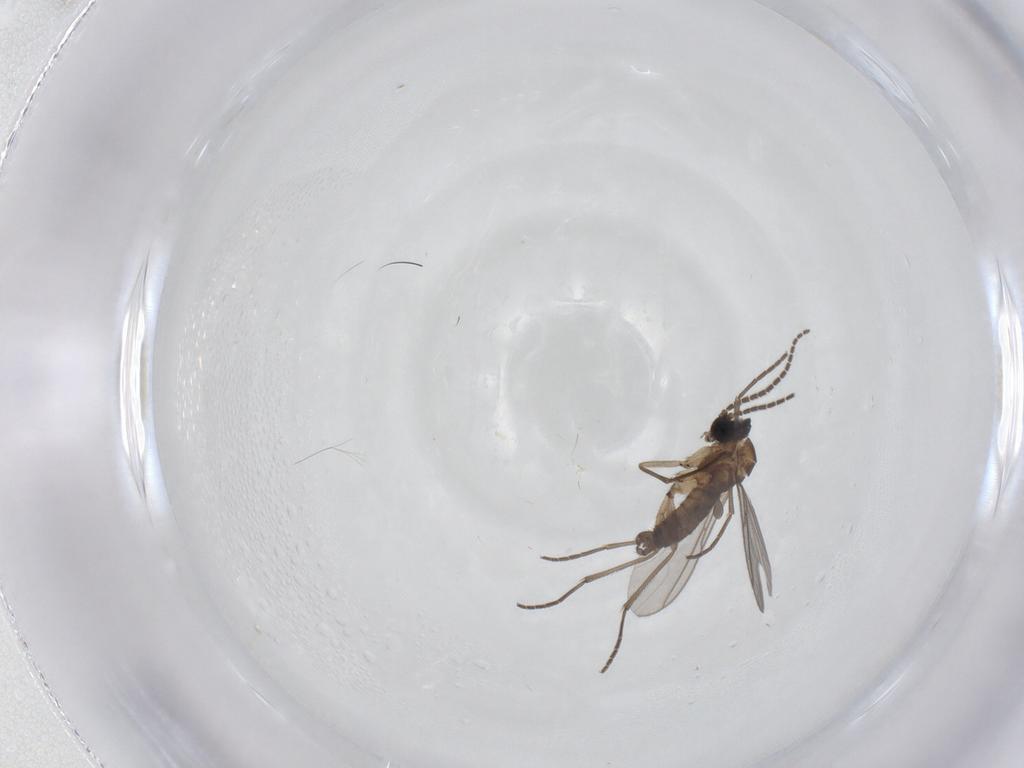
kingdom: Animalia
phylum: Arthropoda
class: Insecta
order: Diptera
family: Sciaridae
